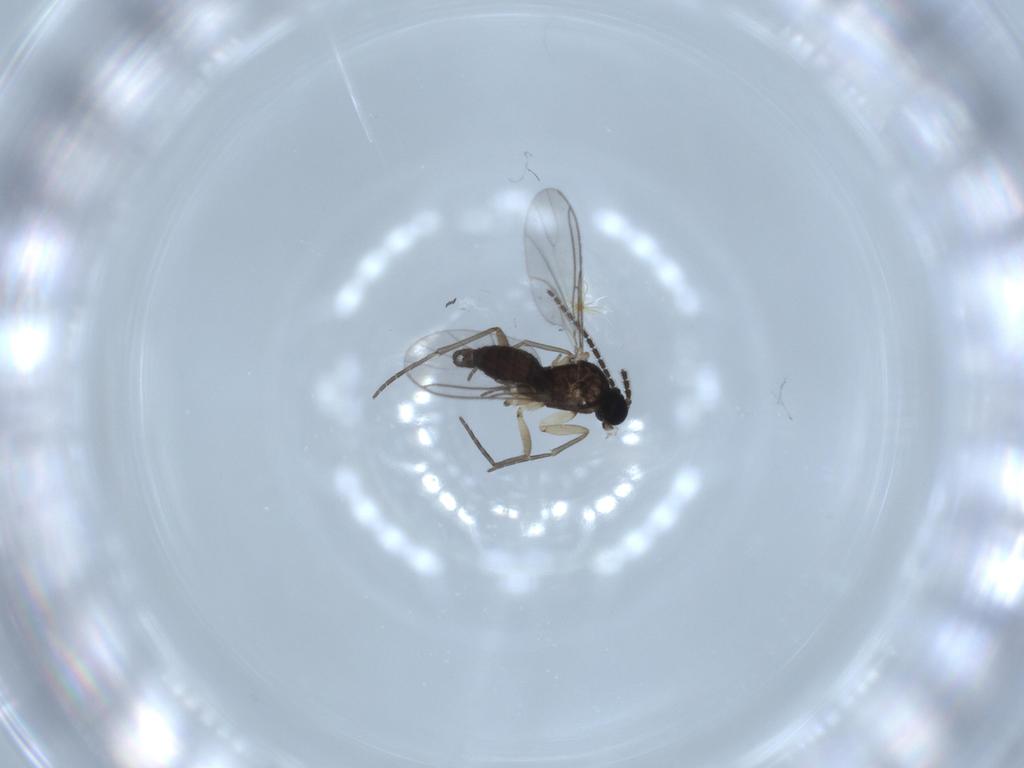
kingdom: Animalia
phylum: Arthropoda
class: Insecta
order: Diptera
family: Sciaridae
